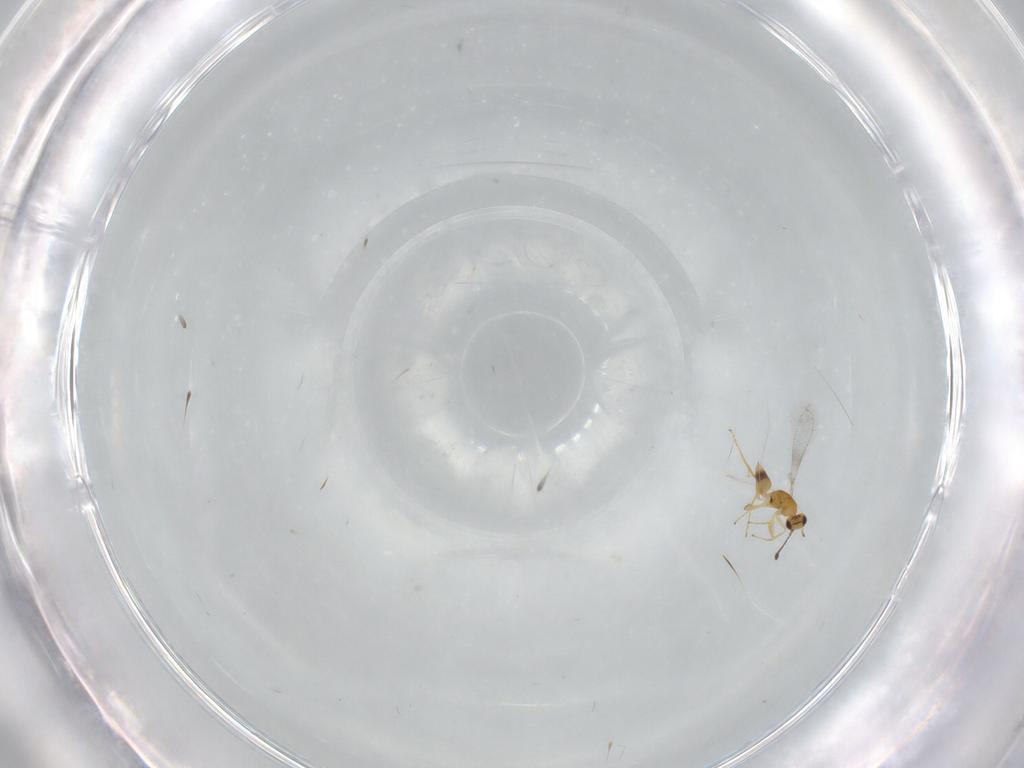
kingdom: Animalia
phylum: Arthropoda
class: Insecta
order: Hymenoptera
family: Mymaridae
